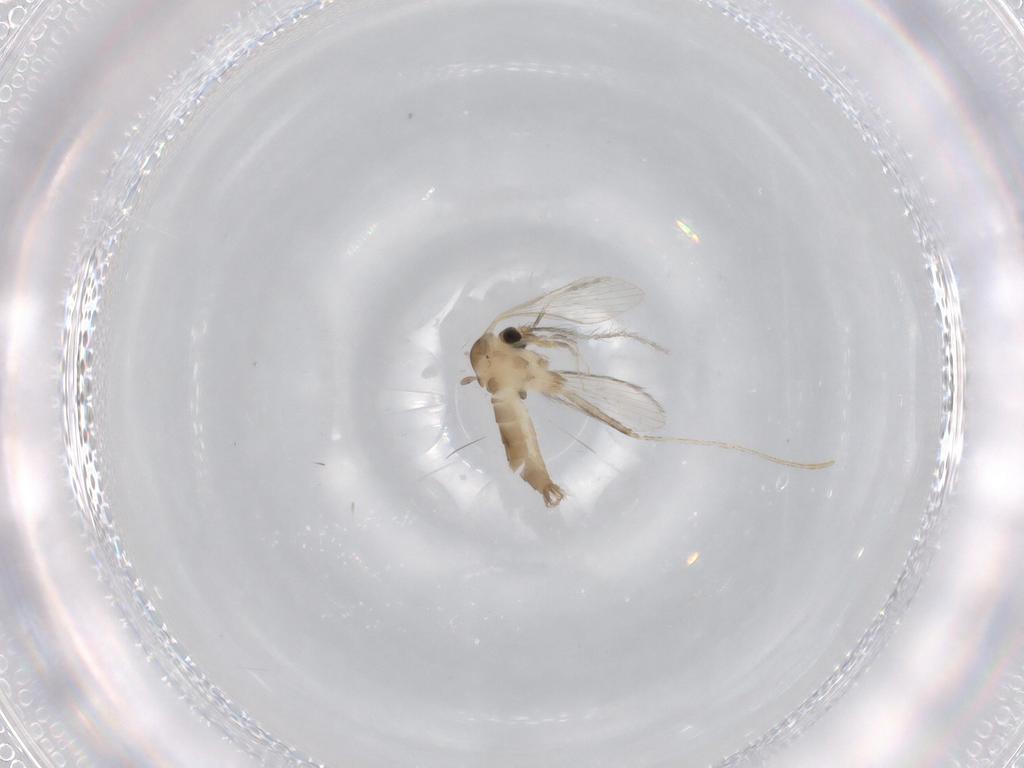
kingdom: Animalia
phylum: Arthropoda
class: Insecta
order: Diptera
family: Psychodidae
